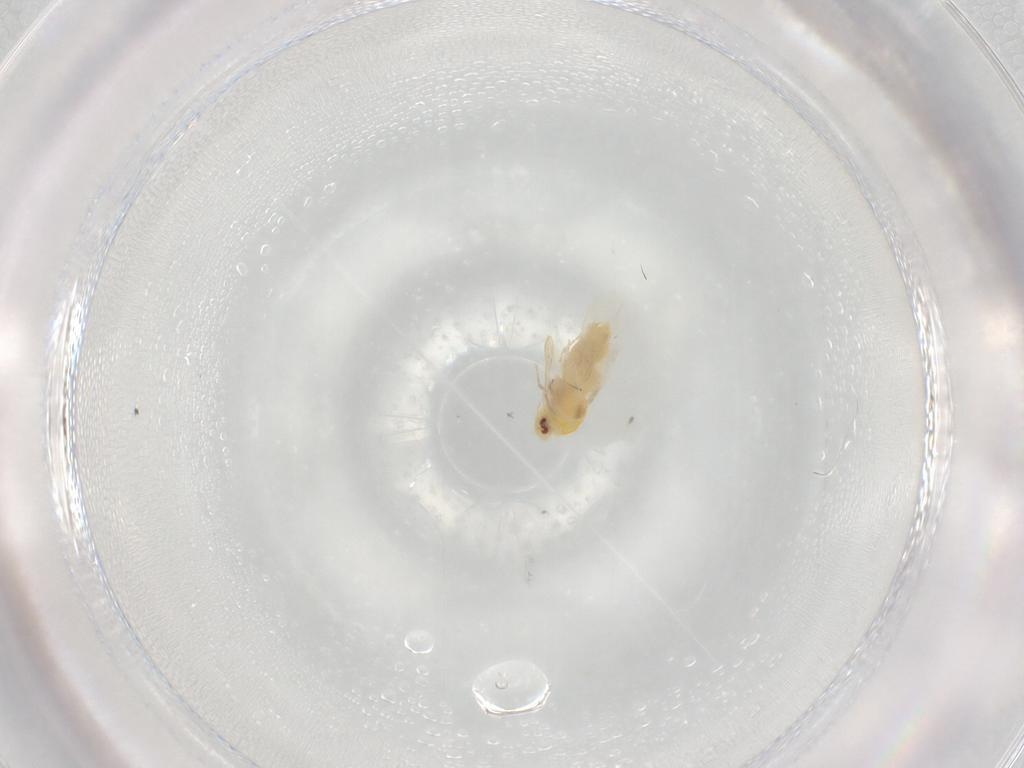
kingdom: Animalia
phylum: Arthropoda
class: Insecta
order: Hemiptera
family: Aleyrodidae
